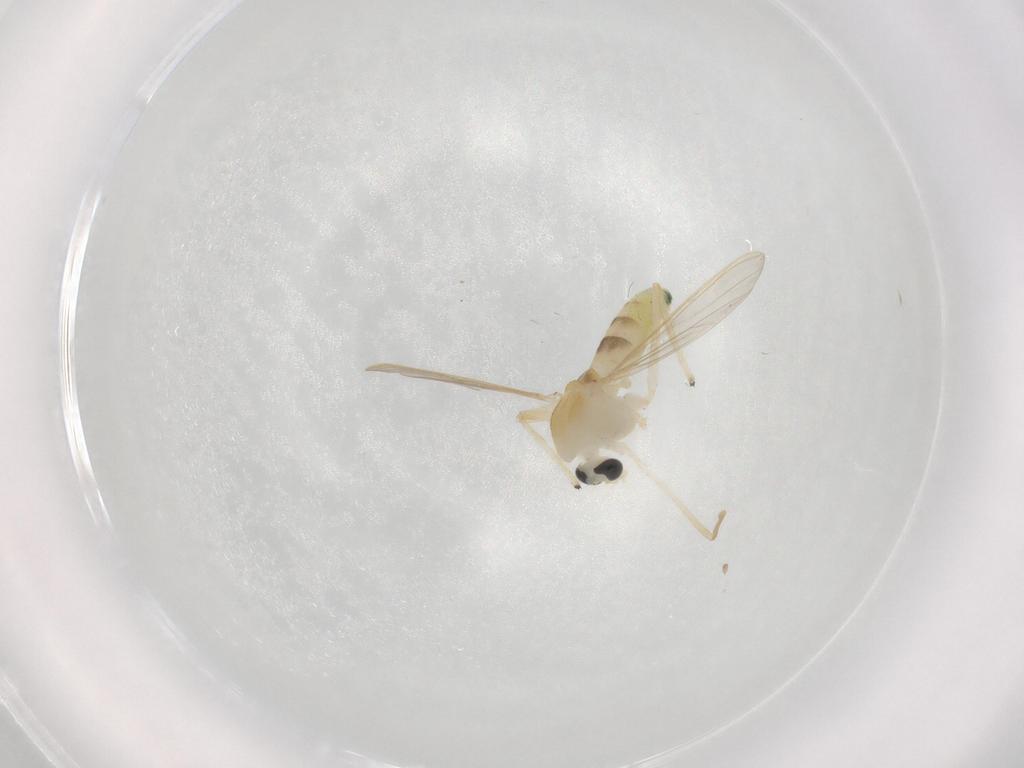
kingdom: Animalia
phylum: Arthropoda
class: Insecta
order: Diptera
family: Chironomidae
